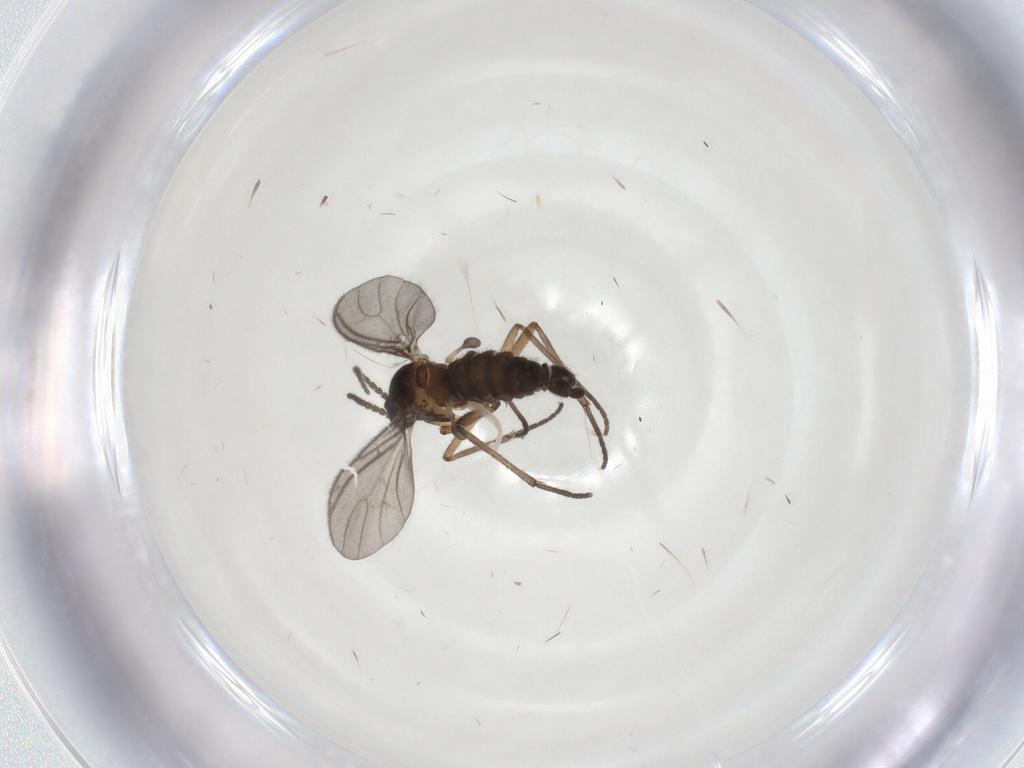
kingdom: Animalia
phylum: Arthropoda
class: Insecta
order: Diptera
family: Sciaridae
